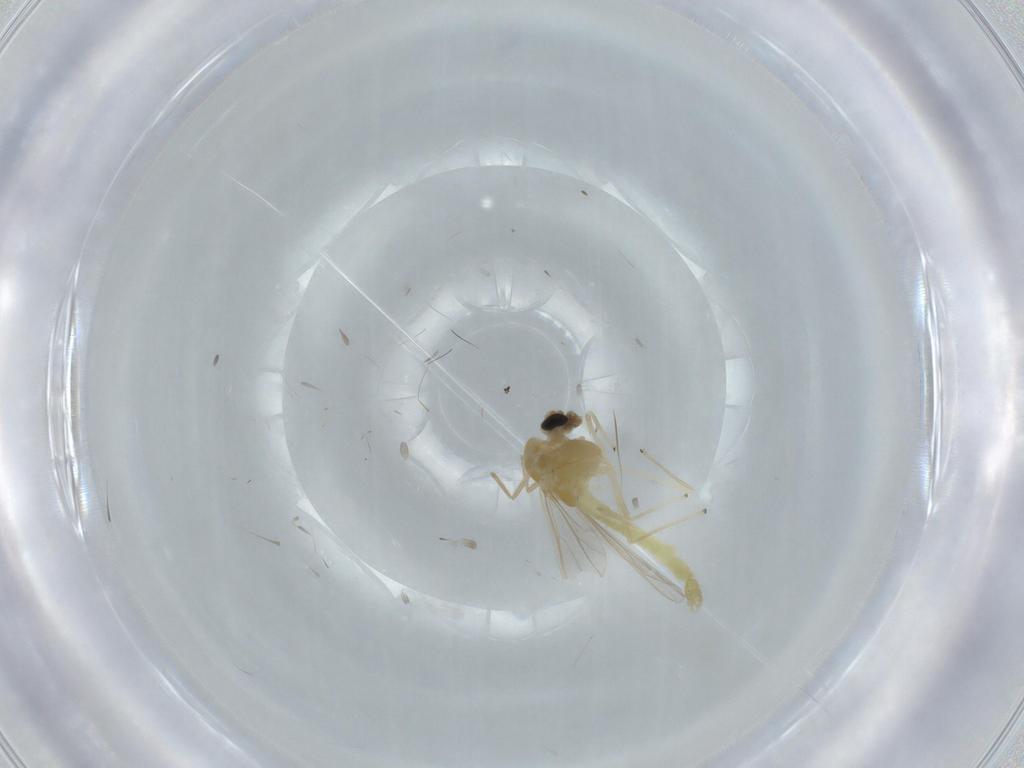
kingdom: Animalia
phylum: Arthropoda
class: Insecta
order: Diptera
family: Chironomidae
